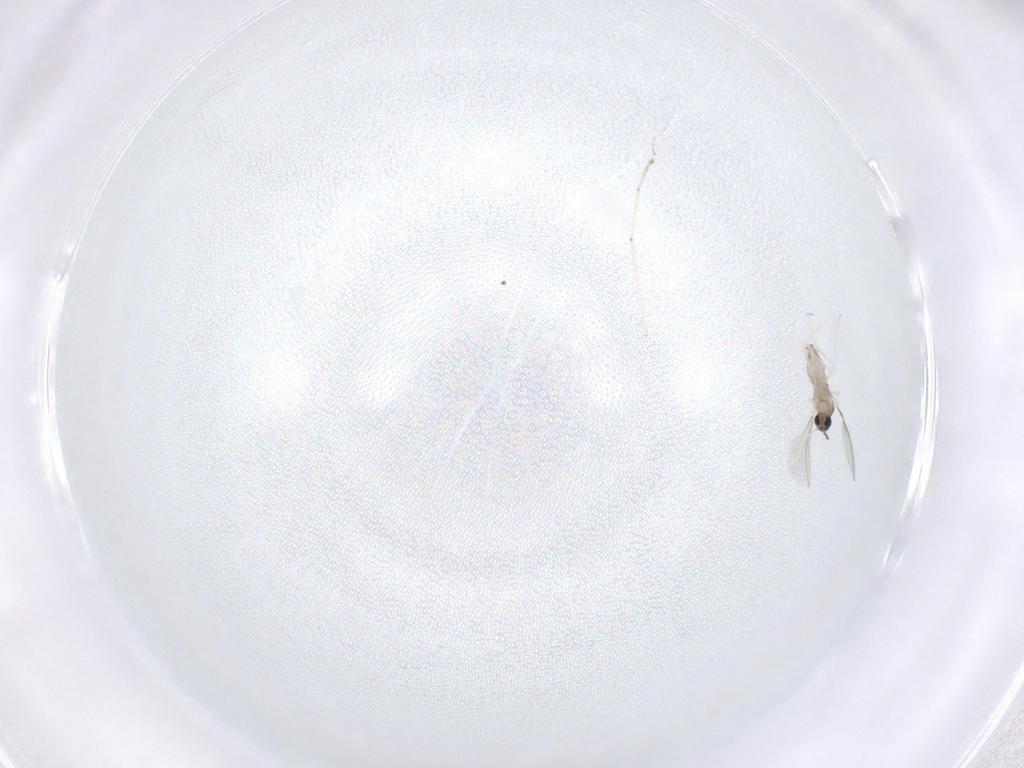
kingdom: Animalia
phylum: Arthropoda
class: Insecta
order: Diptera
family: Cecidomyiidae
